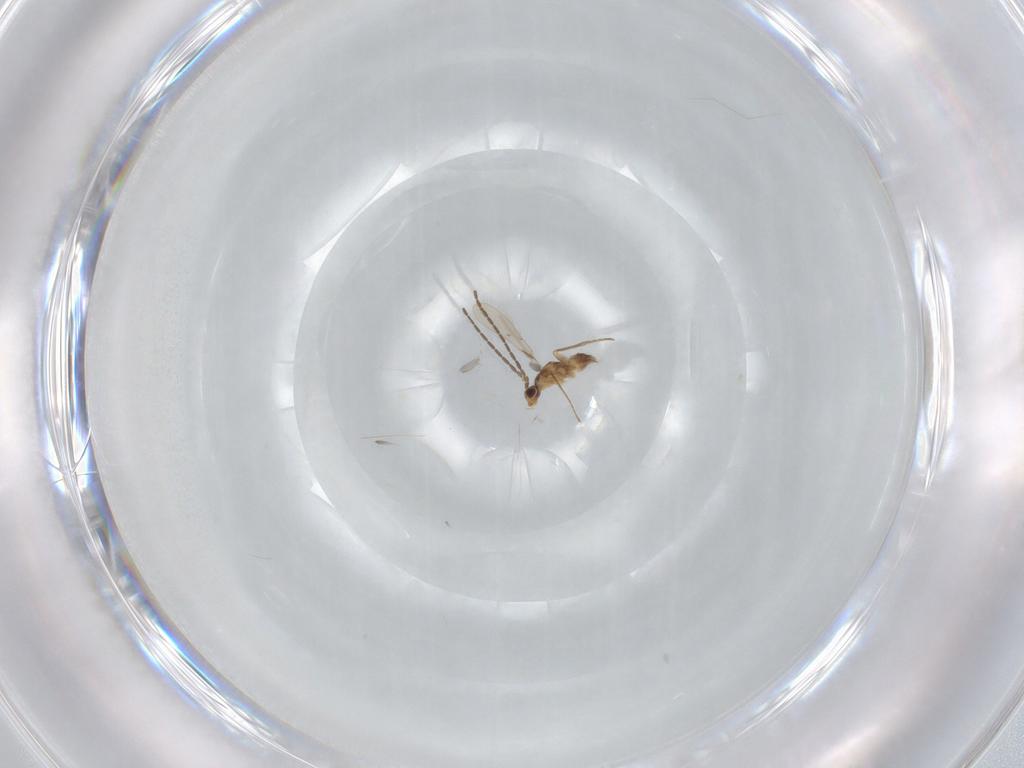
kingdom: Animalia
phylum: Arthropoda
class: Insecta
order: Hymenoptera
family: Mymaridae
